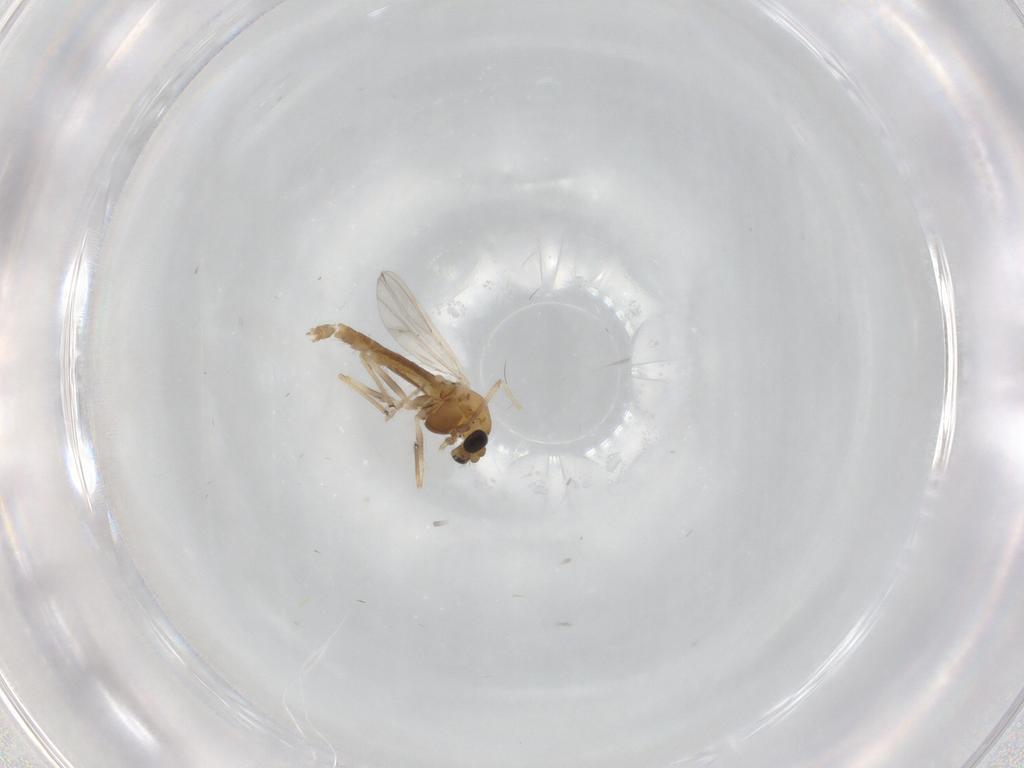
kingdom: Animalia
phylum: Arthropoda
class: Insecta
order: Diptera
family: Chironomidae
